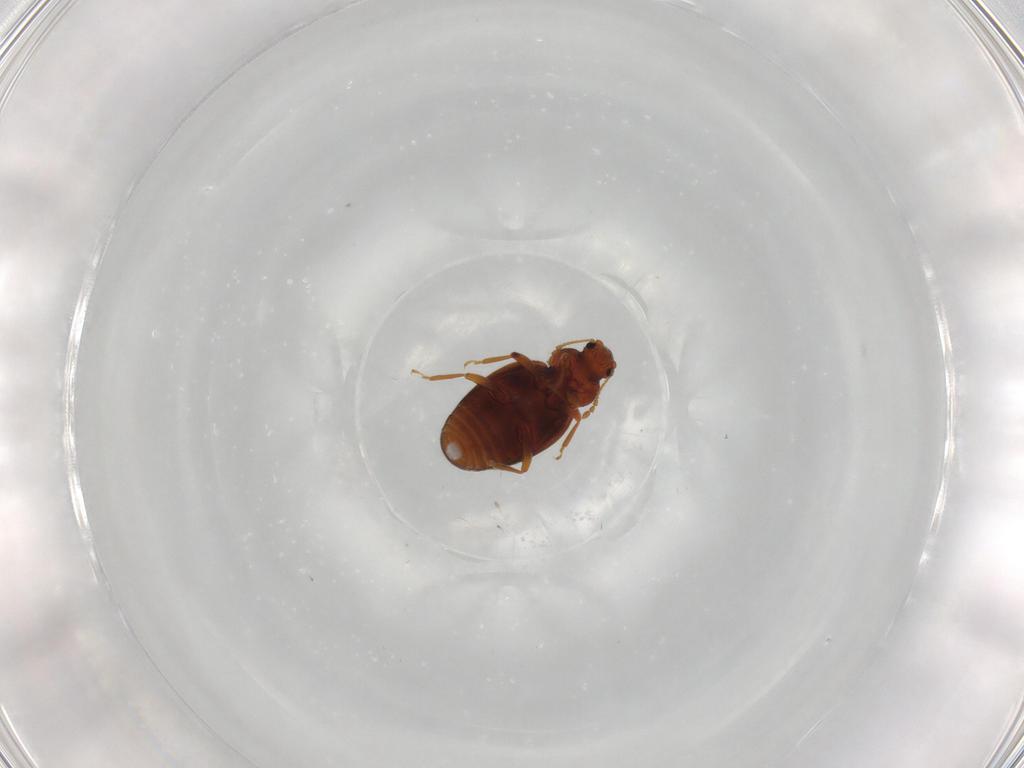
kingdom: Animalia
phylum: Arthropoda
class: Insecta
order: Coleoptera
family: Latridiidae
